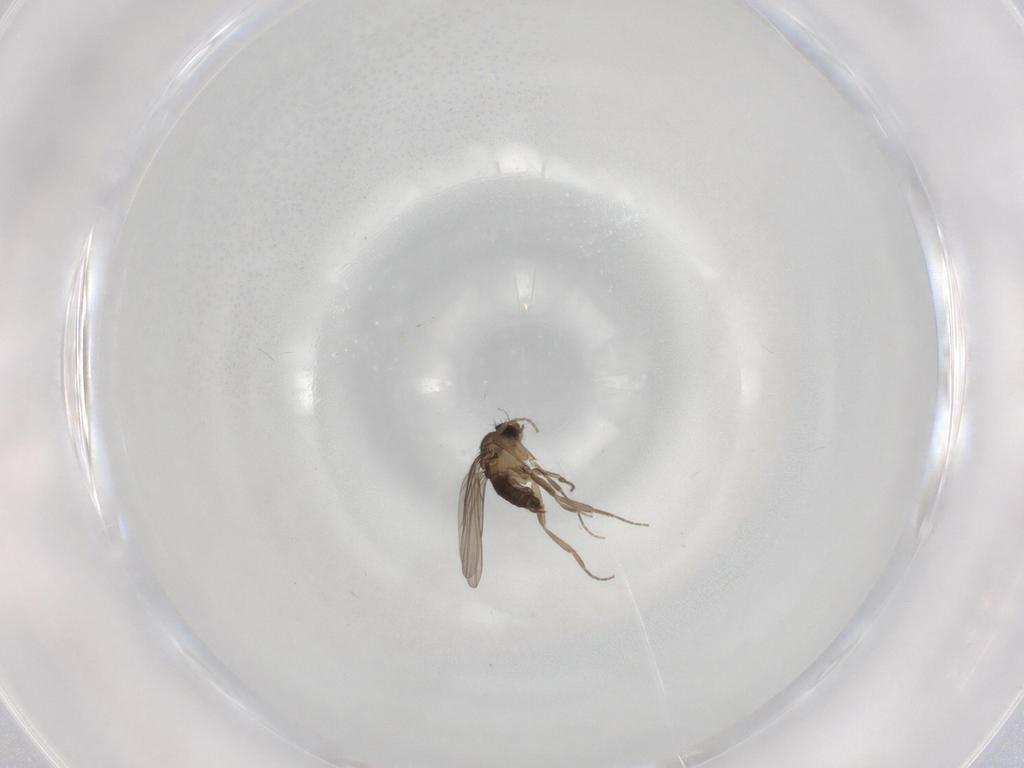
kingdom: Animalia
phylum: Arthropoda
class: Insecta
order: Diptera
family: Phoridae
